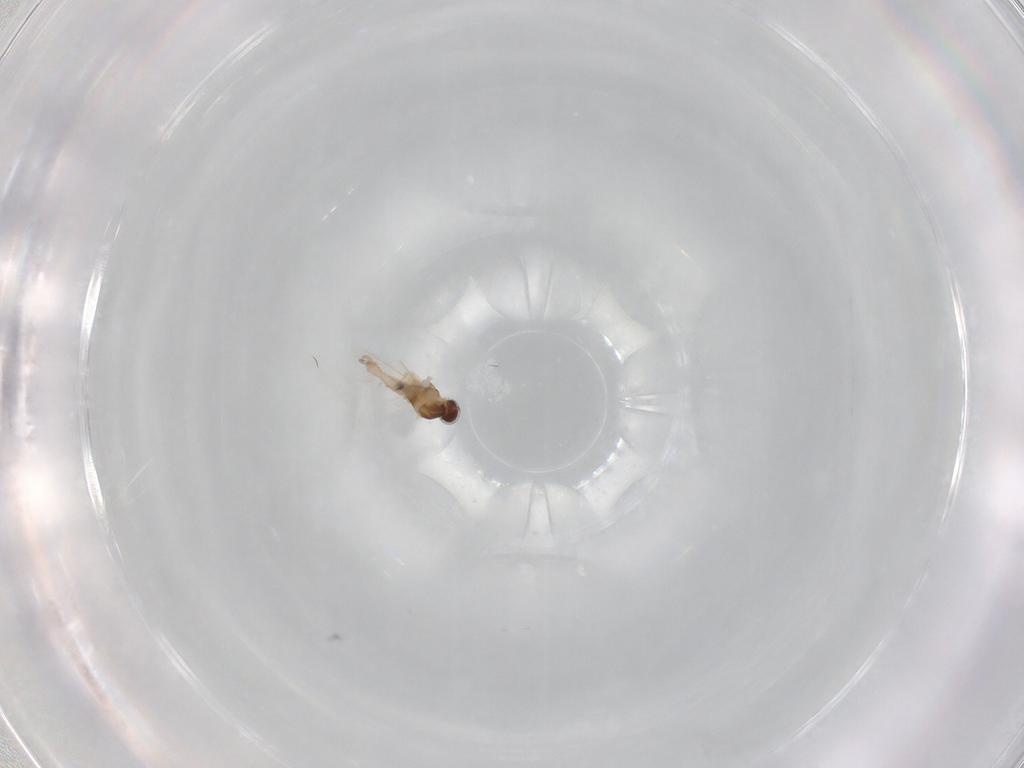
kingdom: Animalia
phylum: Arthropoda
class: Insecta
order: Diptera
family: Cecidomyiidae
